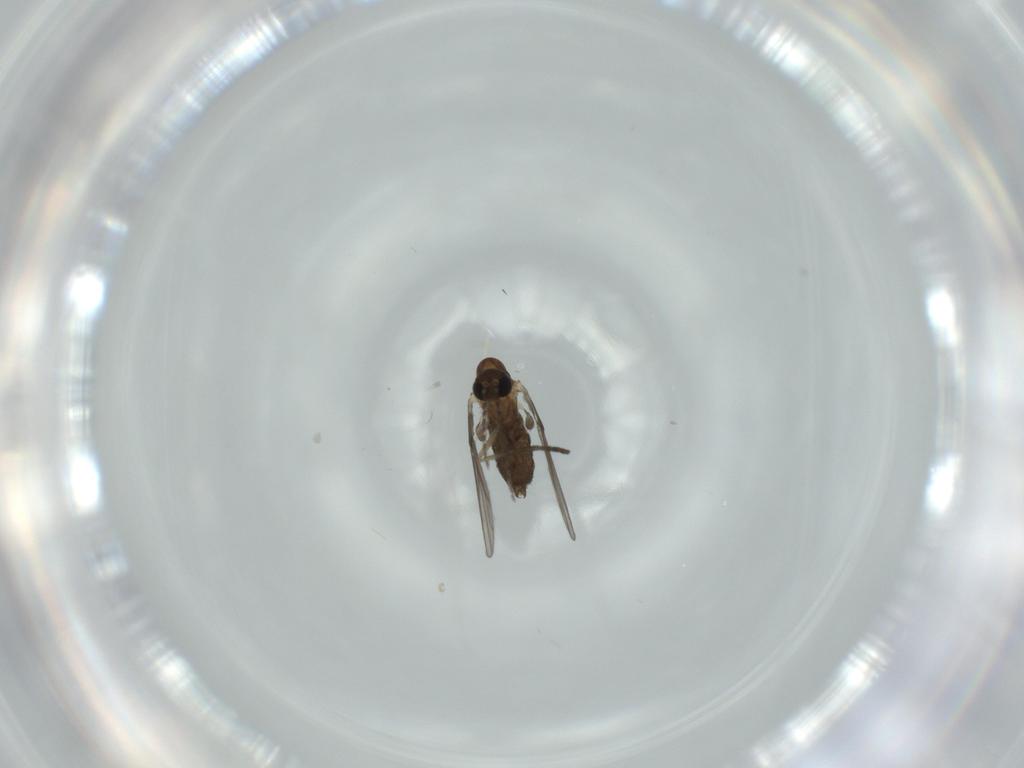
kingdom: Animalia
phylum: Arthropoda
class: Insecta
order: Diptera
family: Psychodidae
